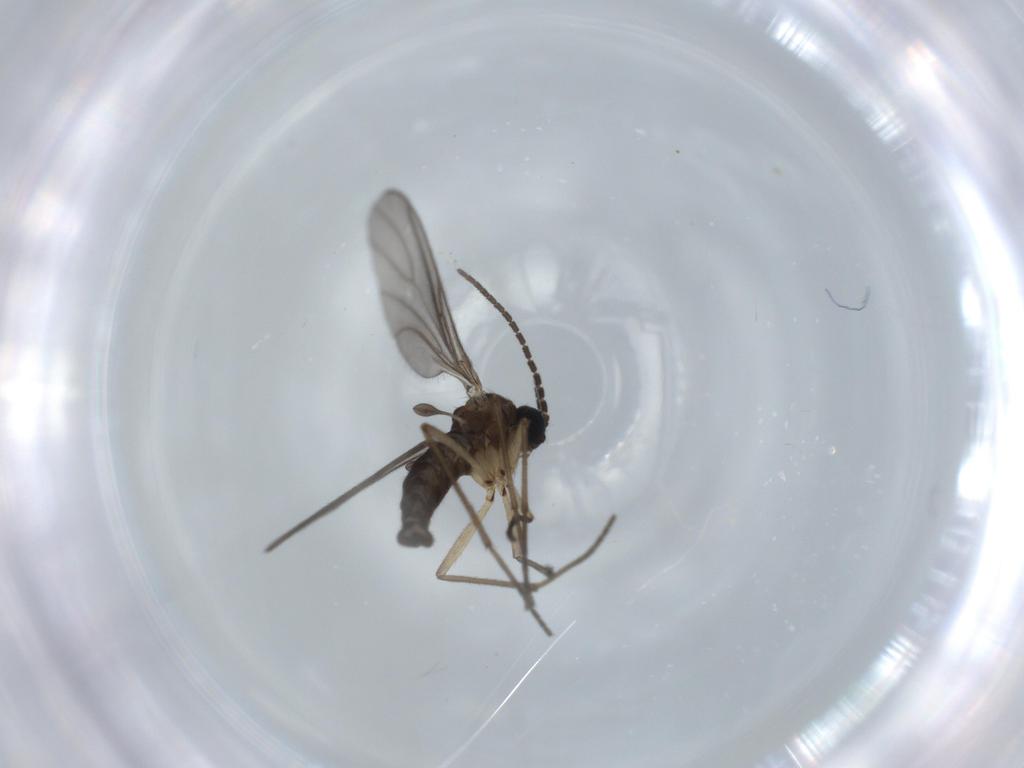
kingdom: Animalia
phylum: Arthropoda
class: Insecta
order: Diptera
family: Sciaridae
